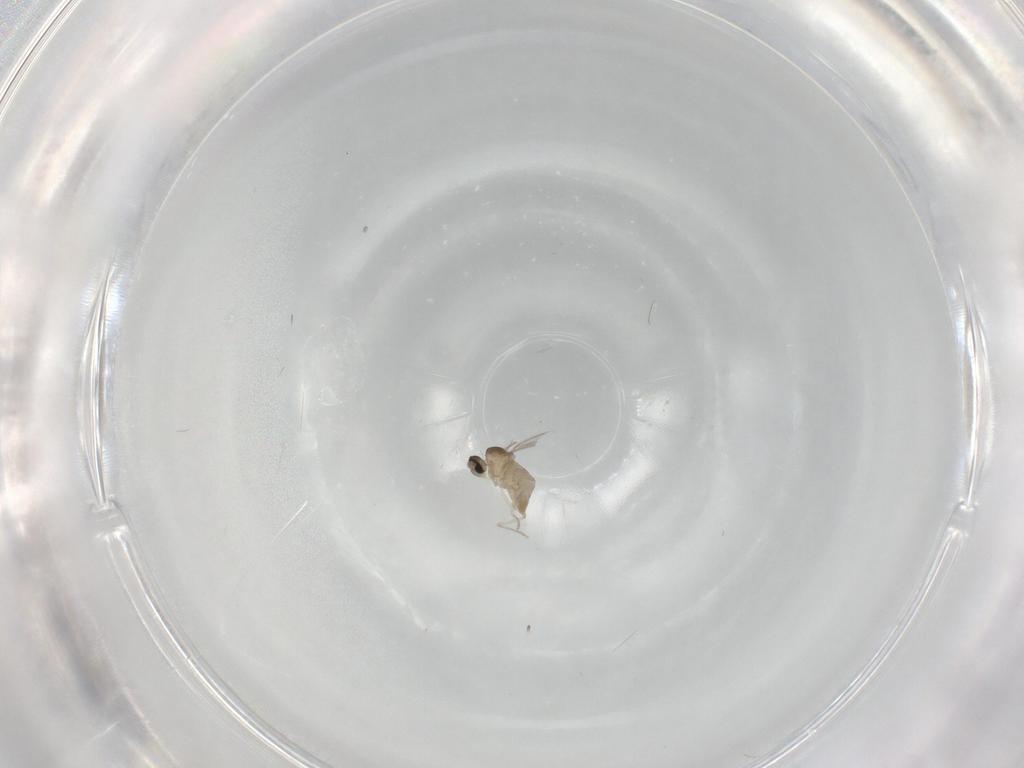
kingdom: Animalia
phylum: Arthropoda
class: Insecta
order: Diptera
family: Cecidomyiidae
